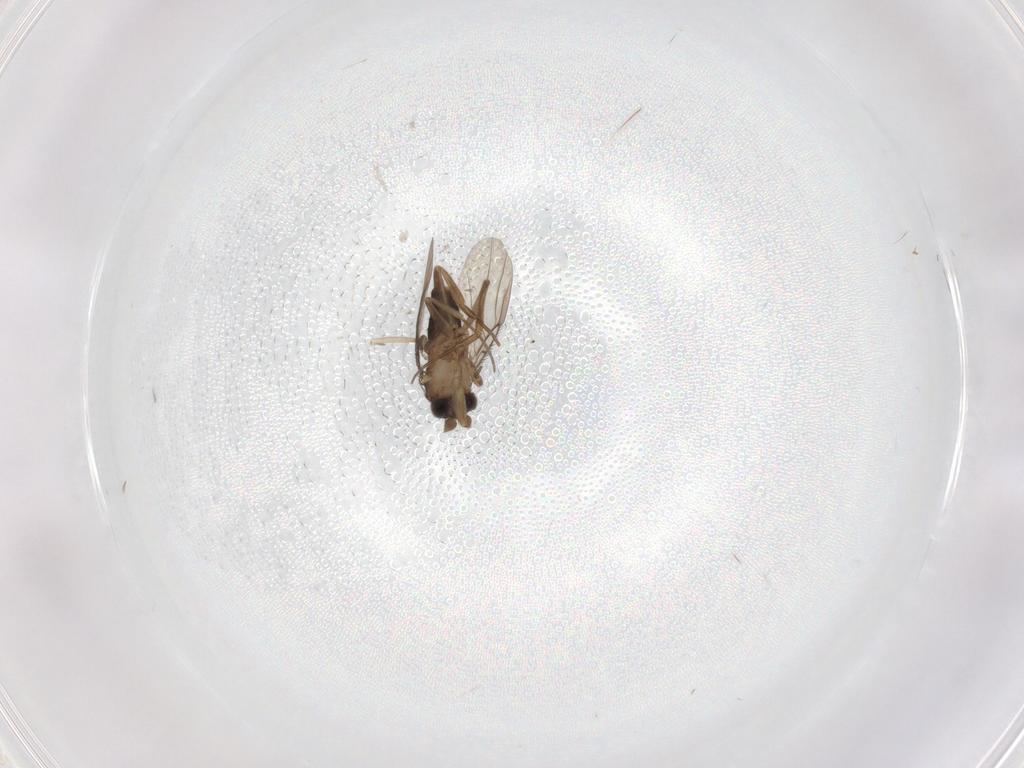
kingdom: Animalia
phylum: Arthropoda
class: Insecta
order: Diptera
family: Phoridae
